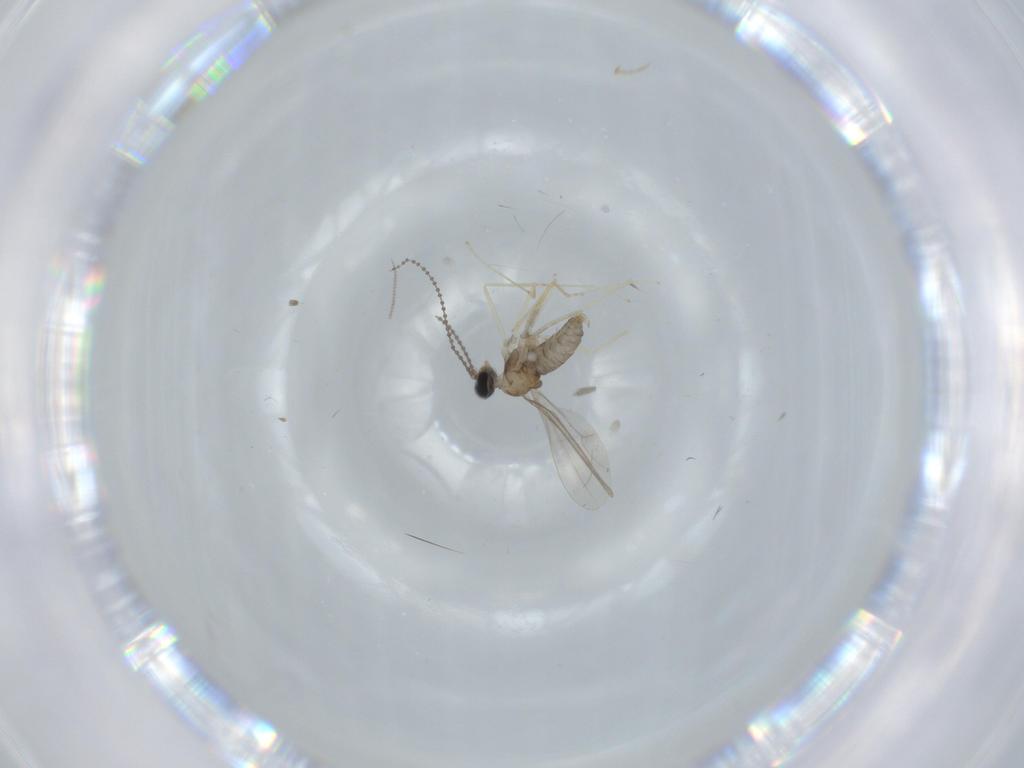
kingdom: Animalia
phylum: Arthropoda
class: Insecta
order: Diptera
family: Cecidomyiidae
